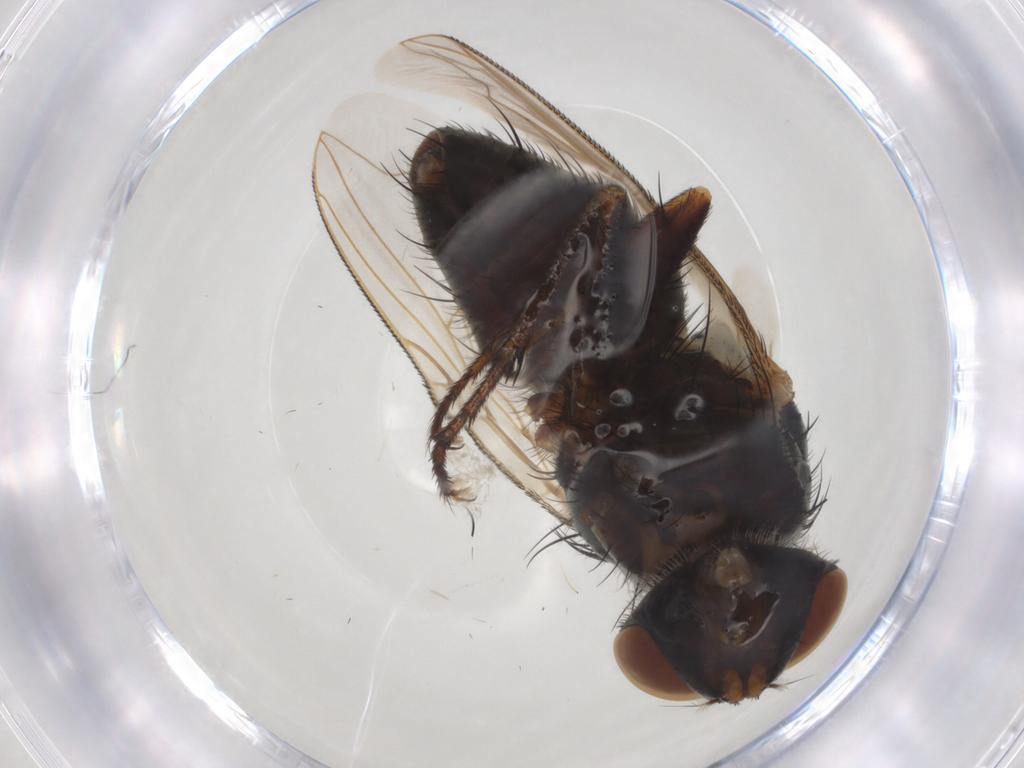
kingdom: Animalia
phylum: Arthropoda
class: Insecta
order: Diptera
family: Sarcophagidae
